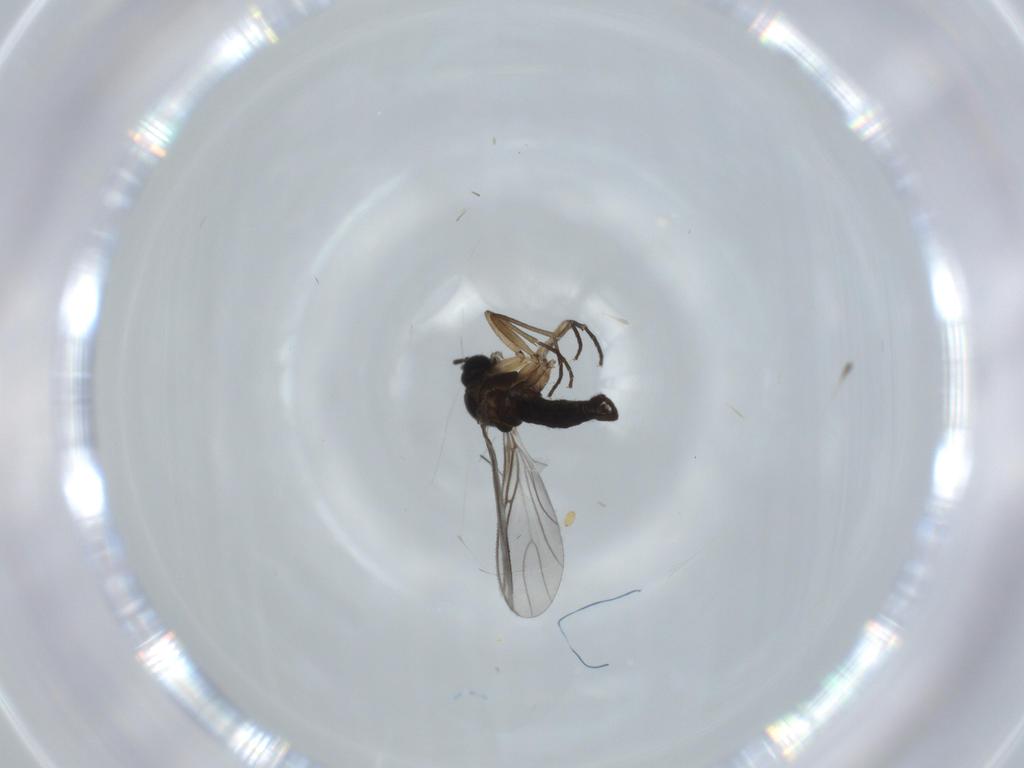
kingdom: Animalia
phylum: Arthropoda
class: Insecta
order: Diptera
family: Sciaridae
